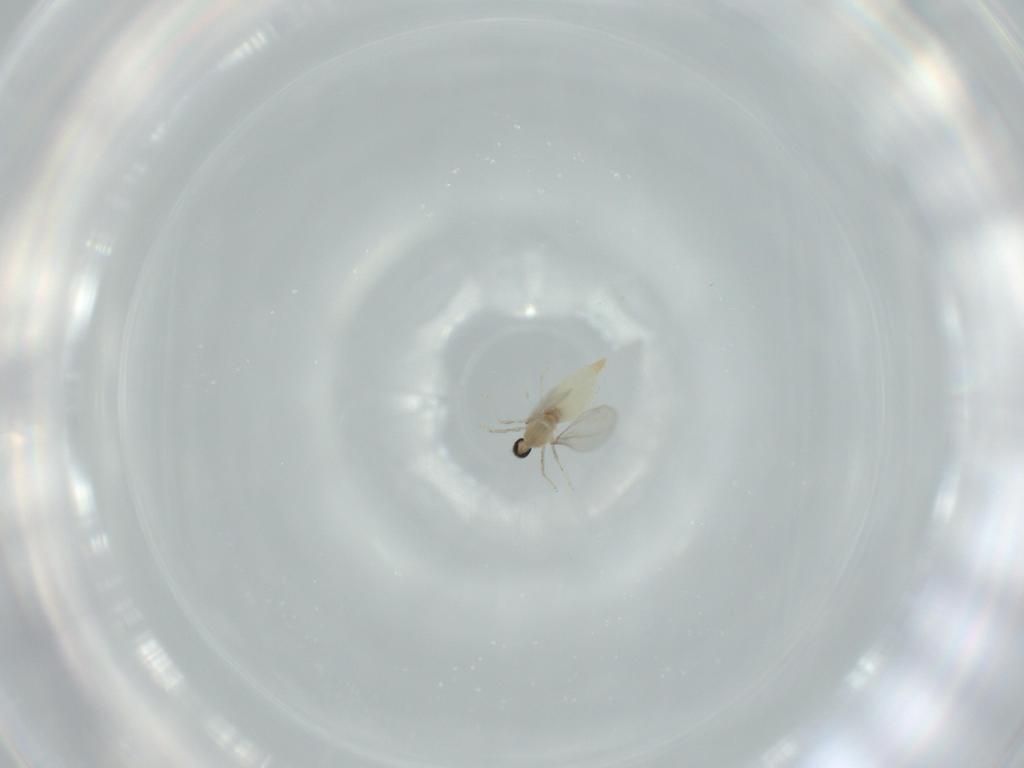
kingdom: Animalia
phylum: Arthropoda
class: Insecta
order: Diptera
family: Cecidomyiidae
